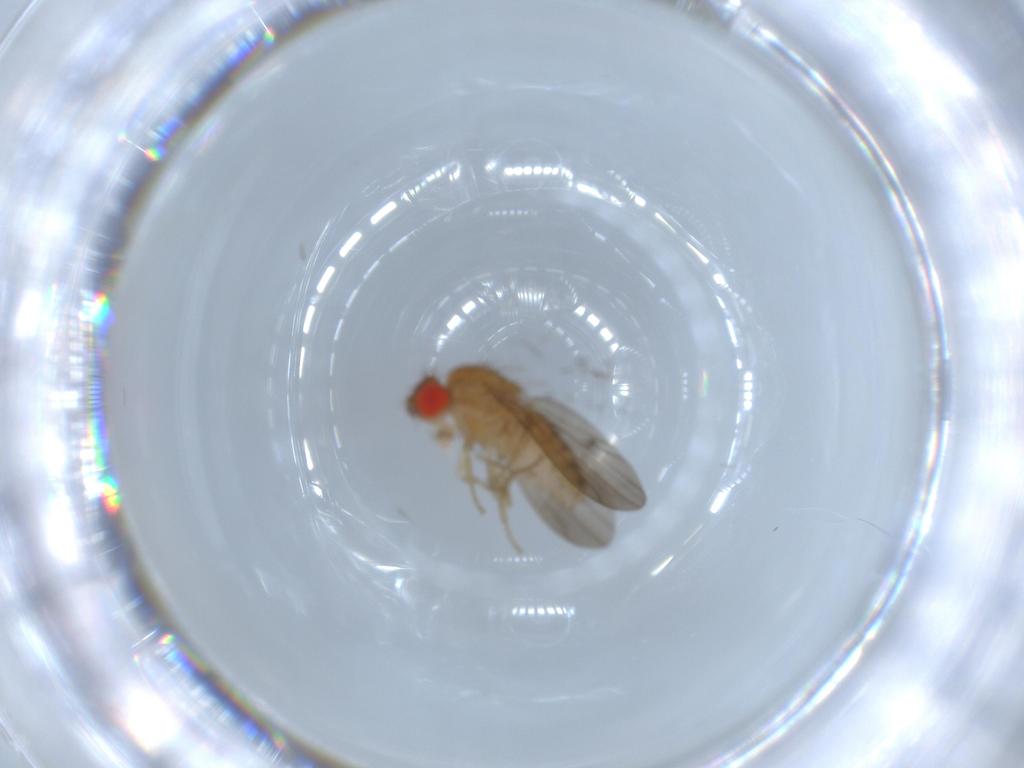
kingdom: Animalia
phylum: Arthropoda
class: Insecta
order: Diptera
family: Drosophilidae
